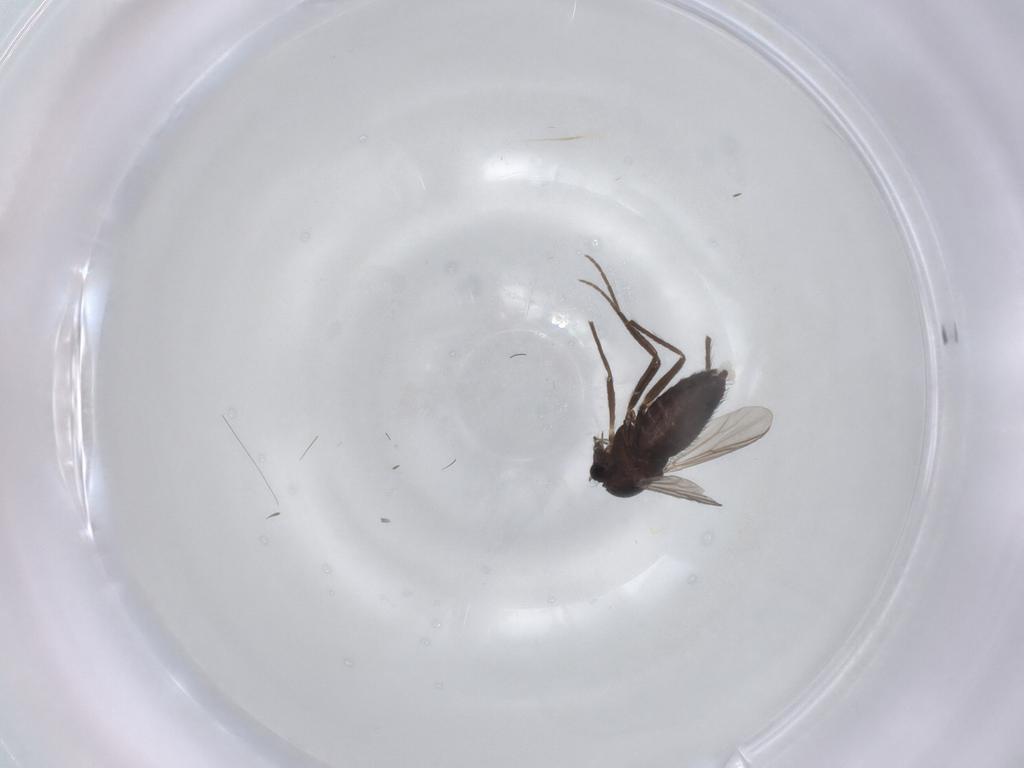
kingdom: Animalia
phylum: Arthropoda
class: Insecta
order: Diptera
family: Chironomidae
